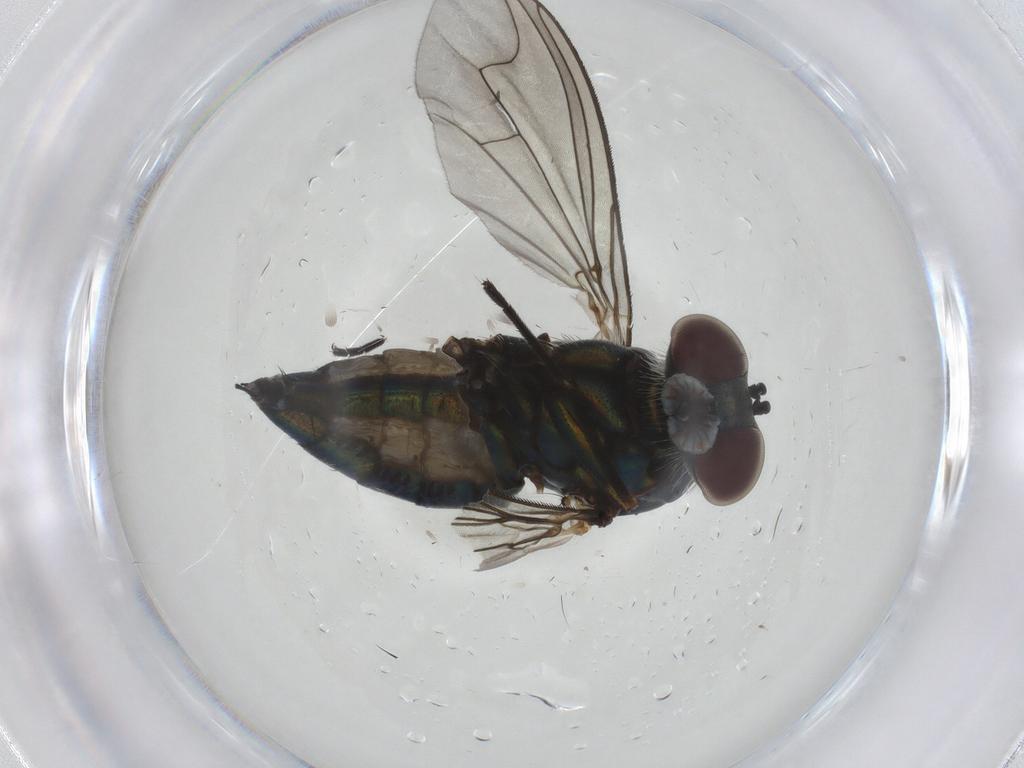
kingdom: Animalia
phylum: Arthropoda
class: Insecta
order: Diptera
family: Dolichopodidae
